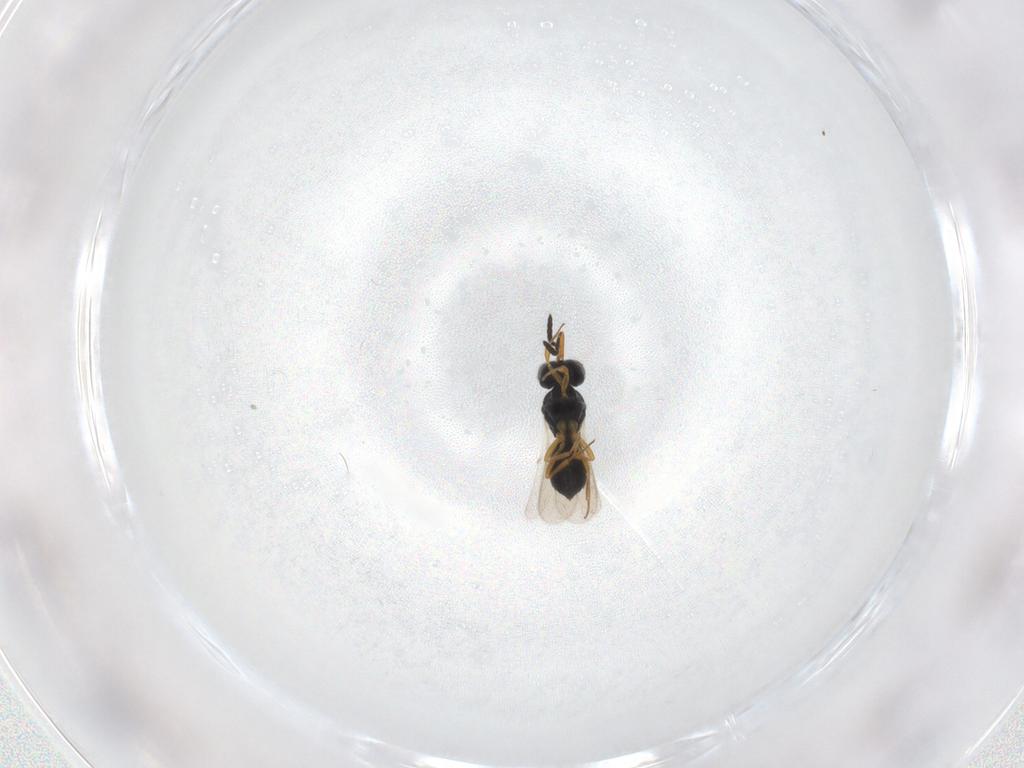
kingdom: Animalia
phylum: Arthropoda
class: Insecta
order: Hymenoptera
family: Scelionidae
